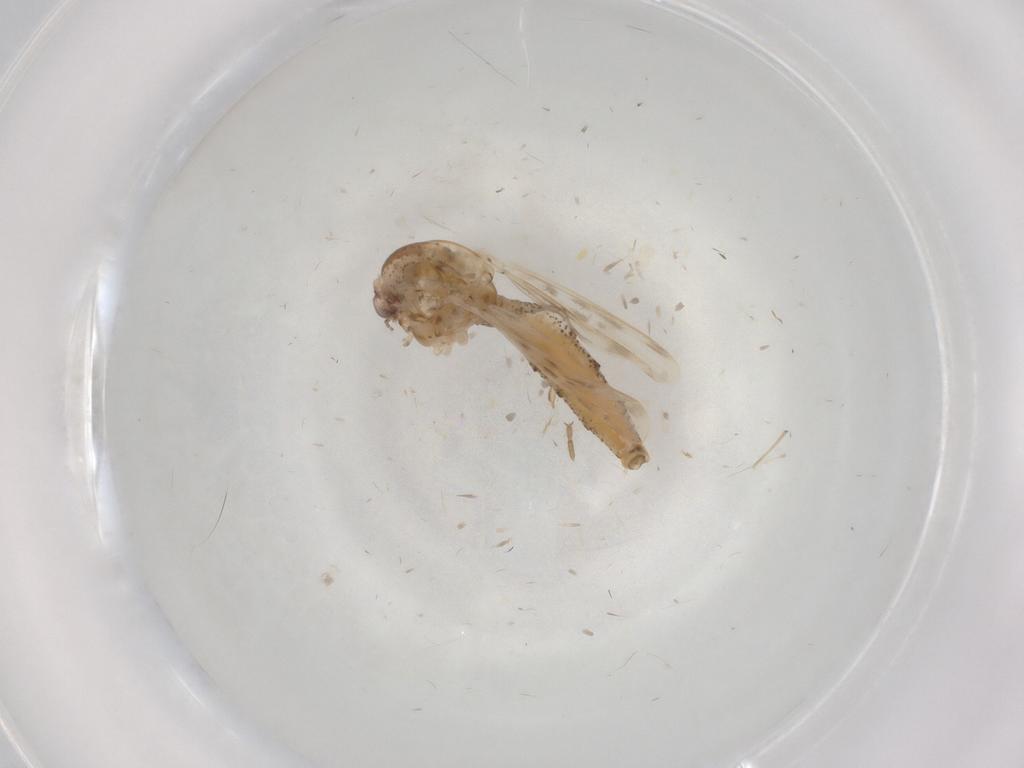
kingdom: Animalia
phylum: Arthropoda
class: Insecta
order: Diptera
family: Chaoboridae
